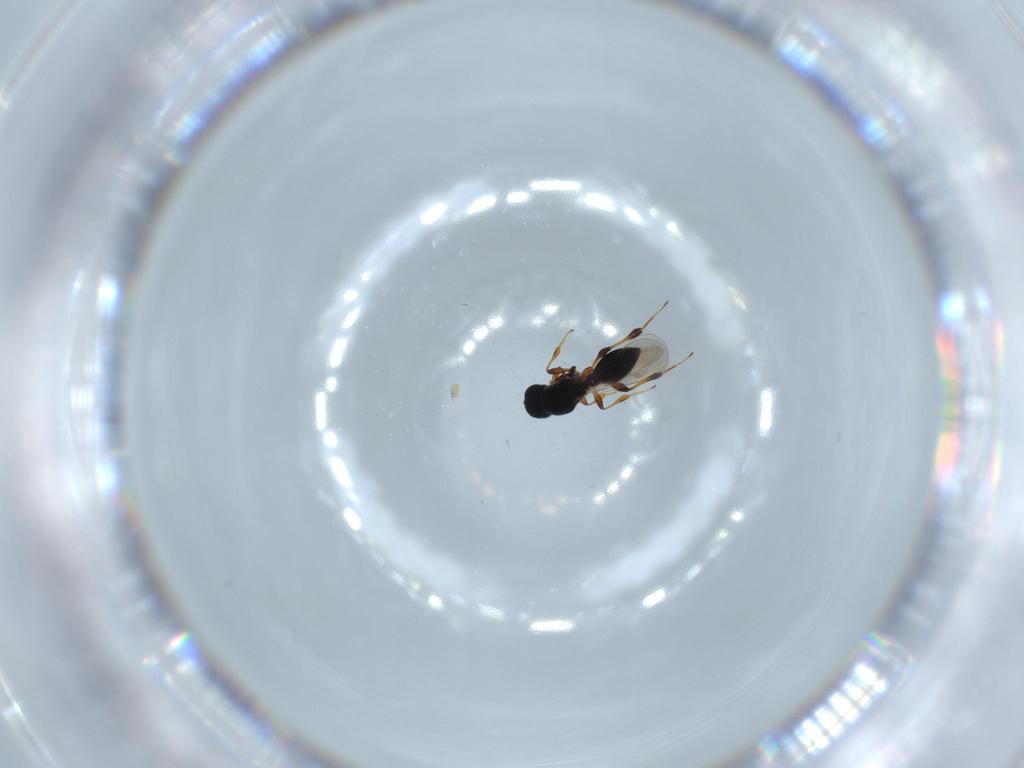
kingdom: Animalia
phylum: Arthropoda
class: Insecta
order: Hymenoptera
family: Platygastridae
